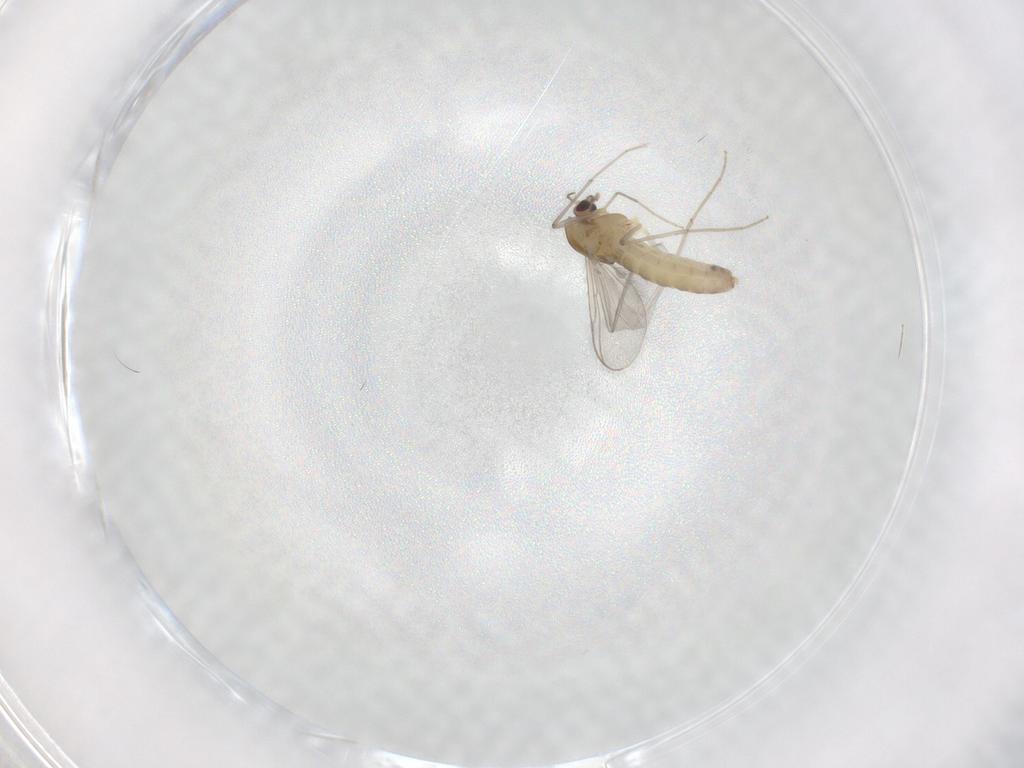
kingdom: Animalia
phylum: Arthropoda
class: Insecta
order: Diptera
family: Chironomidae
